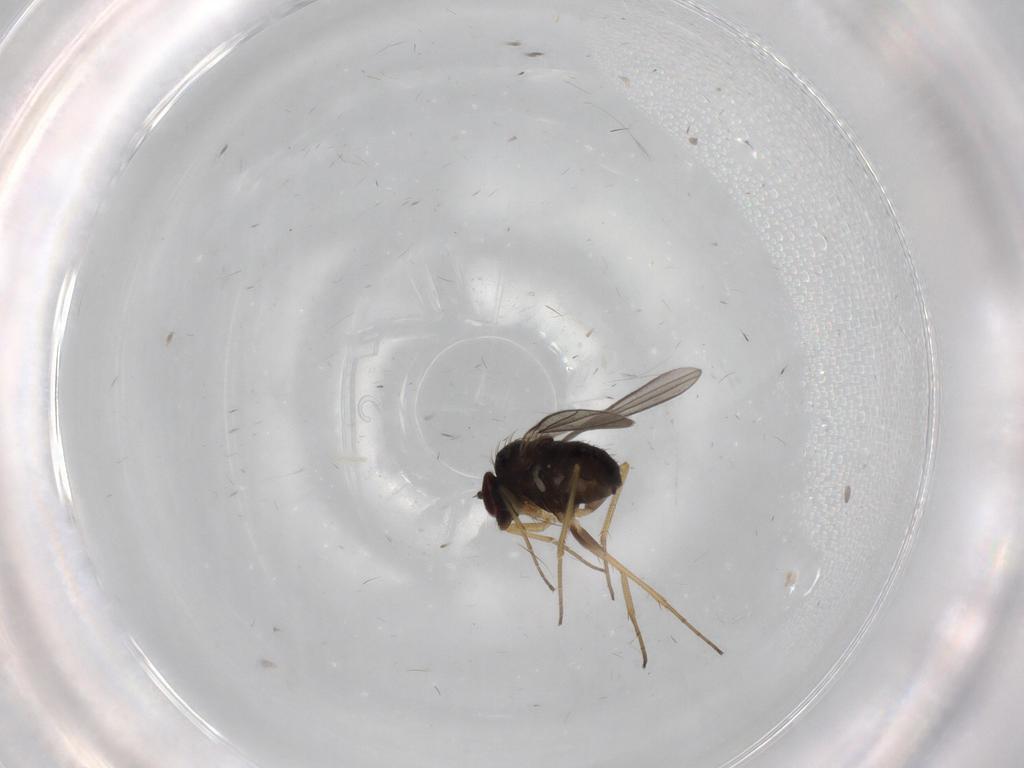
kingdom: Animalia
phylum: Arthropoda
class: Insecta
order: Diptera
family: Dolichopodidae
